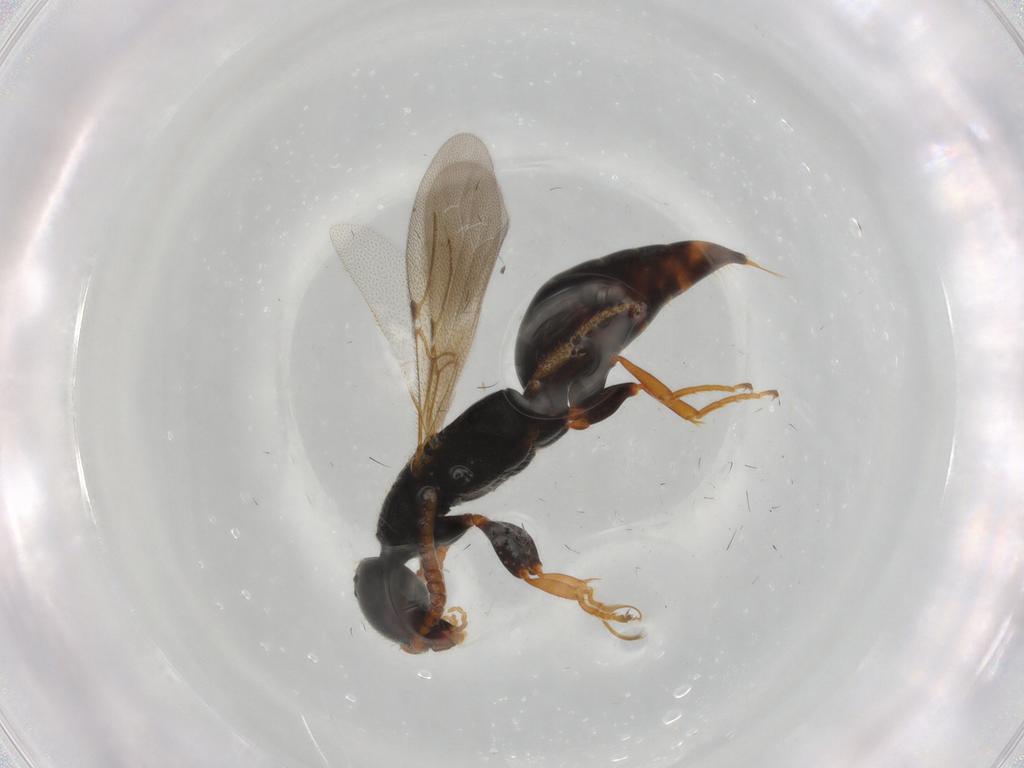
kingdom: Animalia
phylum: Arthropoda
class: Insecta
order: Hymenoptera
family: Bethylidae
